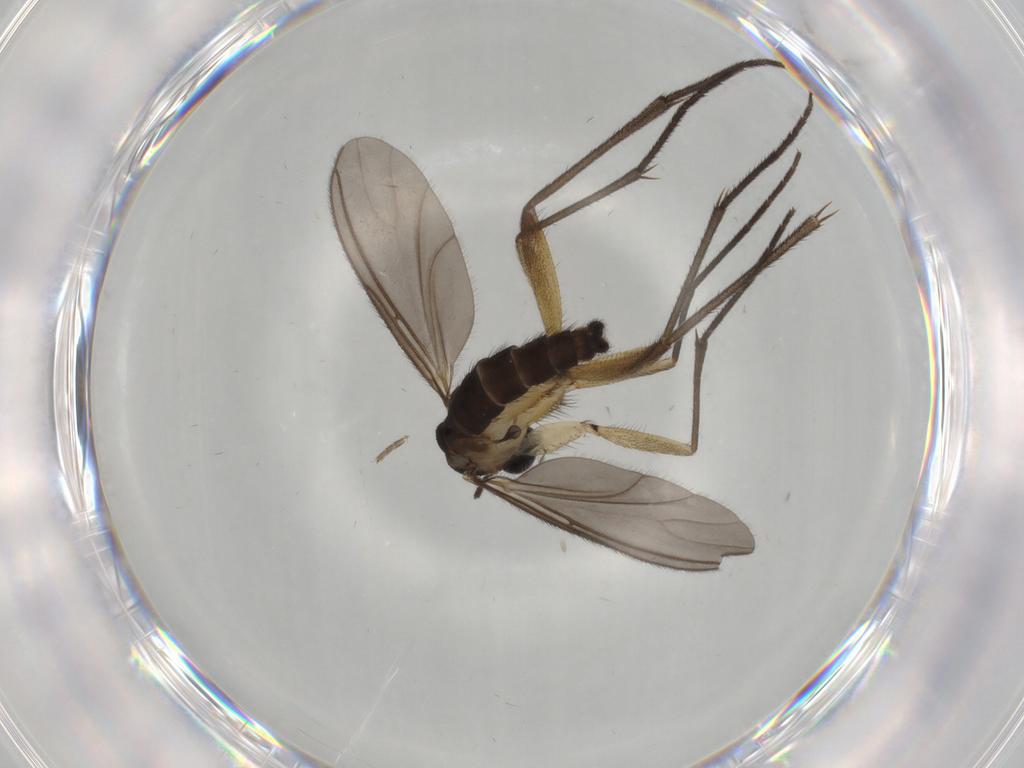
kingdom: Animalia
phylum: Arthropoda
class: Insecta
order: Diptera
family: Sciaridae
